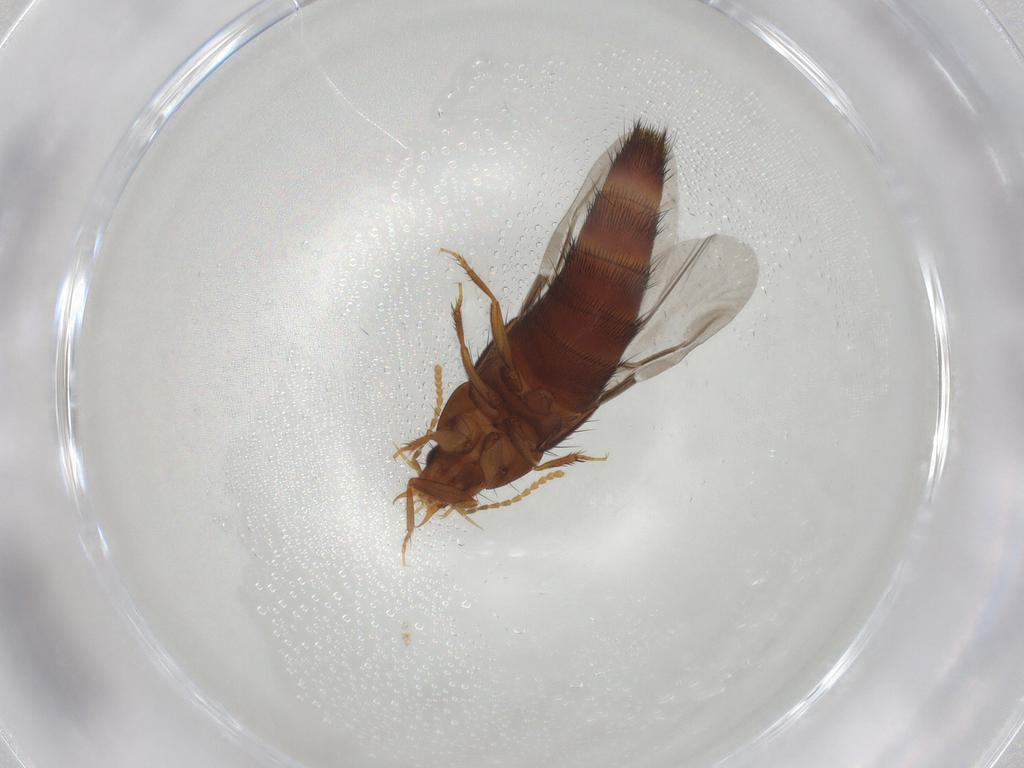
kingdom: Animalia
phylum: Arthropoda
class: Insecta
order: Coleoptera
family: Staphylinidae
